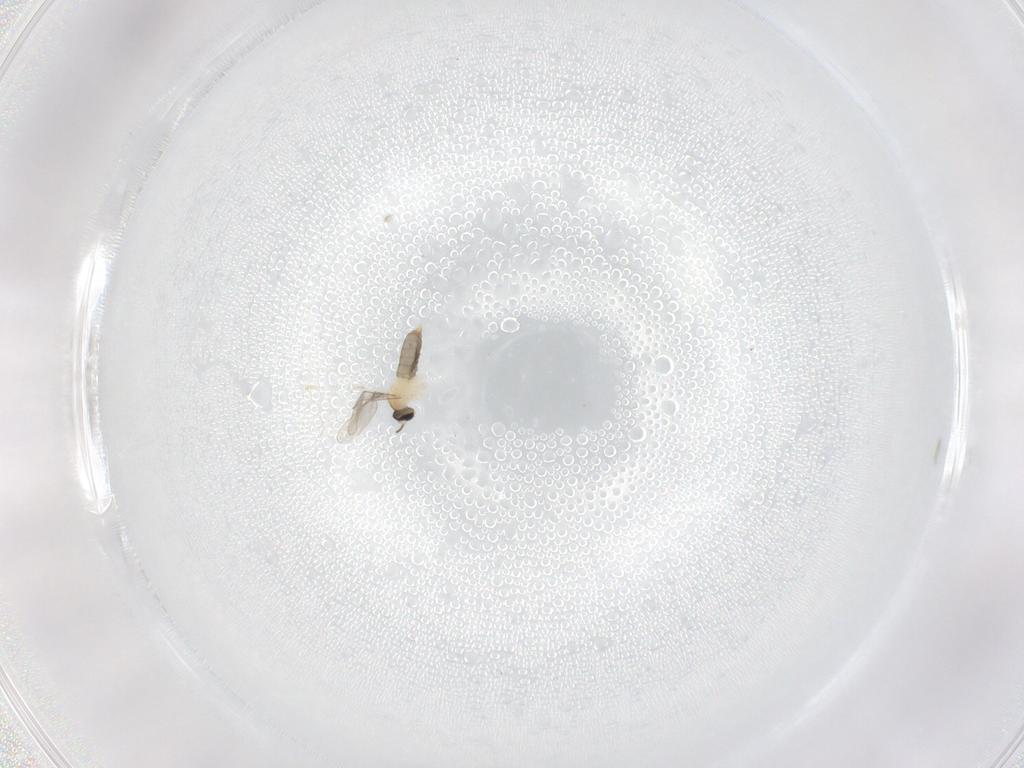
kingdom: Animalia
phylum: Arthropoda
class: Insecta
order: Diptera
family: Cecidomyiidae
